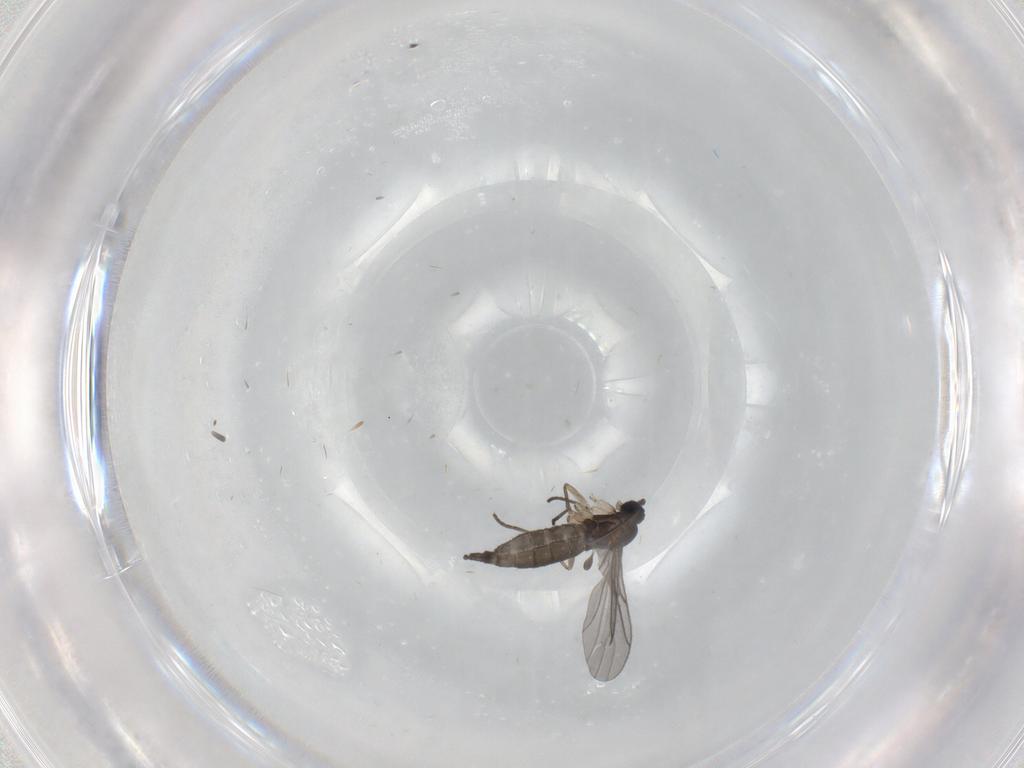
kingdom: Animalia
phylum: Arthropoda
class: Insecta
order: Diptera
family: Sciaridae
